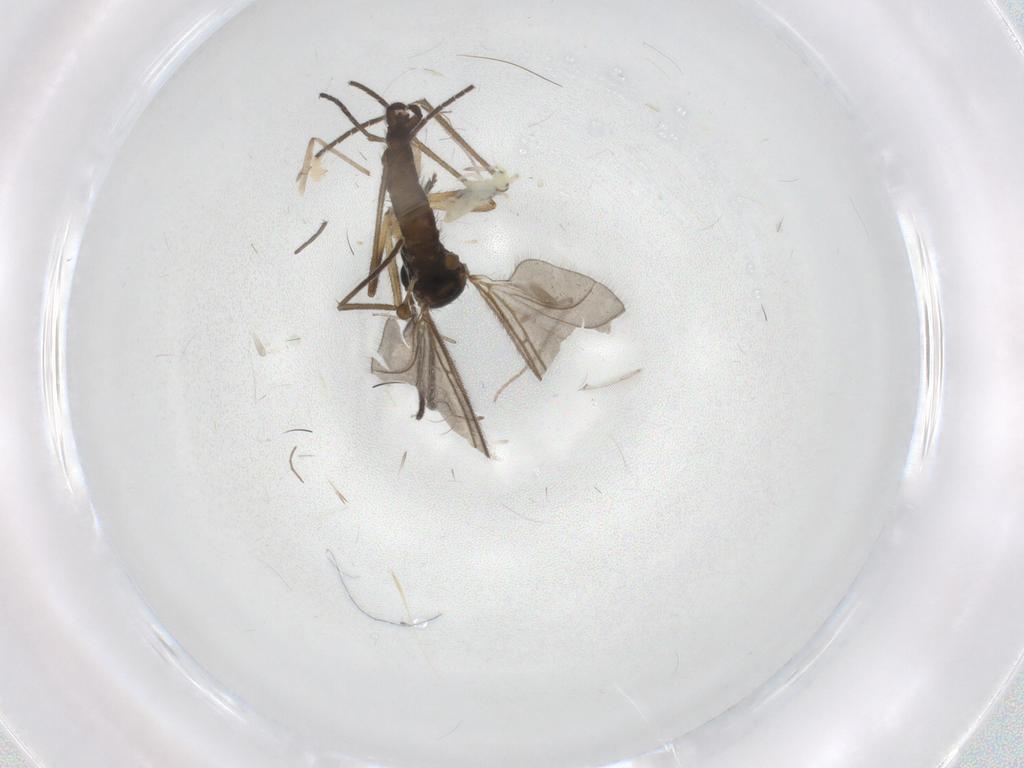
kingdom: Animalia
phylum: Arthropoda
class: Insecta
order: Diptera
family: Sciaridae
